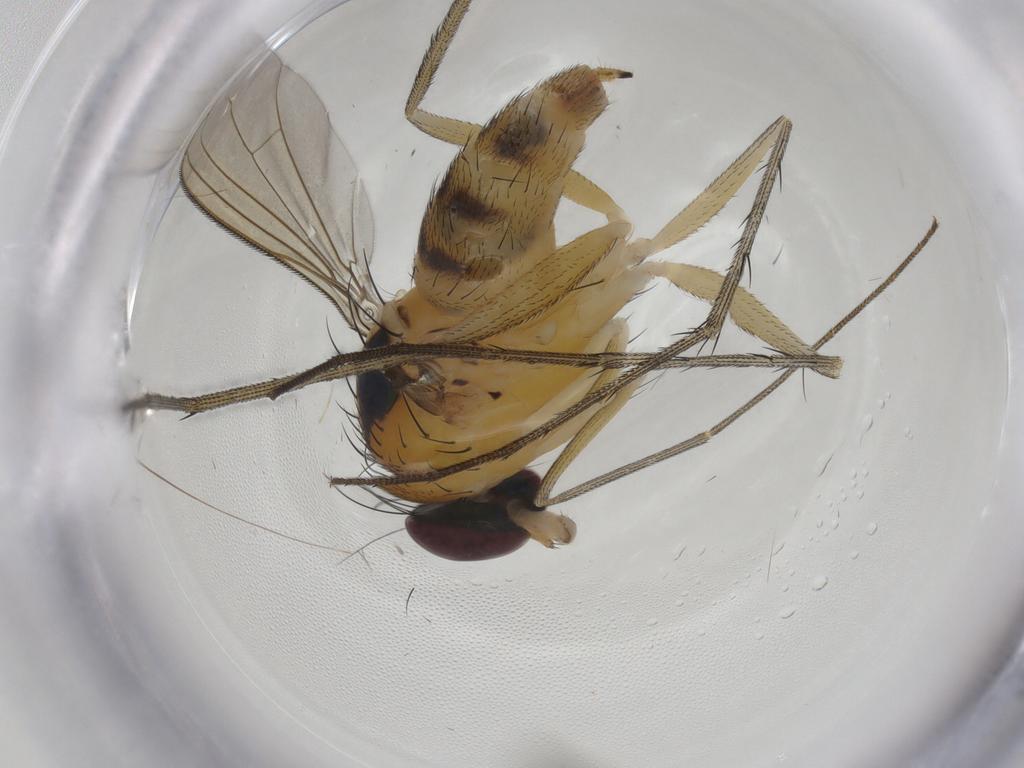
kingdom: Animalia
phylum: Arthropoda
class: Insecta
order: Diptera
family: Dolichopodidae
